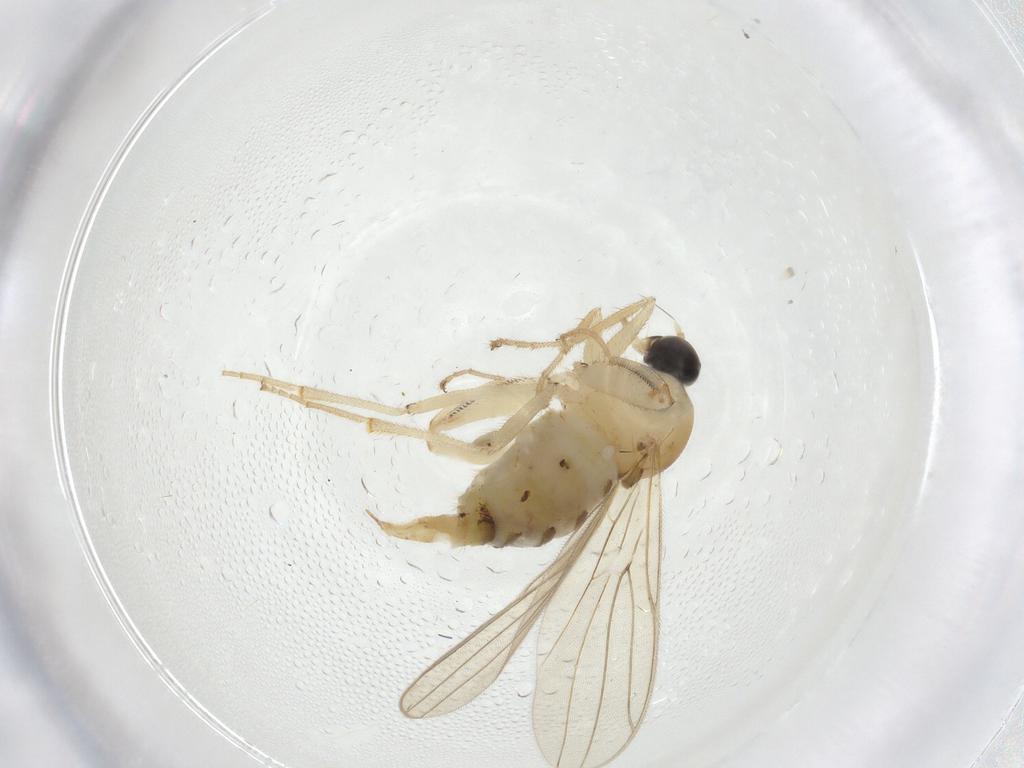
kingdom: Animalia
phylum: Arthropoda
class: Insecta
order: Diptera
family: Hybotidae
